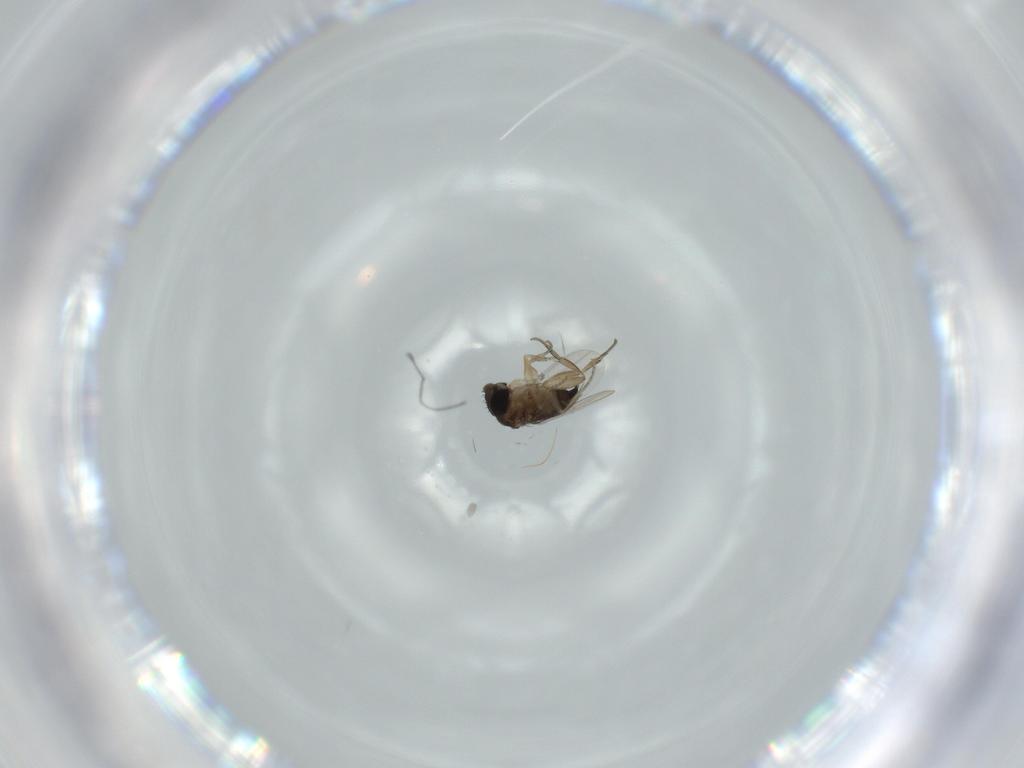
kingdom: Animalia
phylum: Arthropoda
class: Insecta
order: Diptera
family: Phoridae
